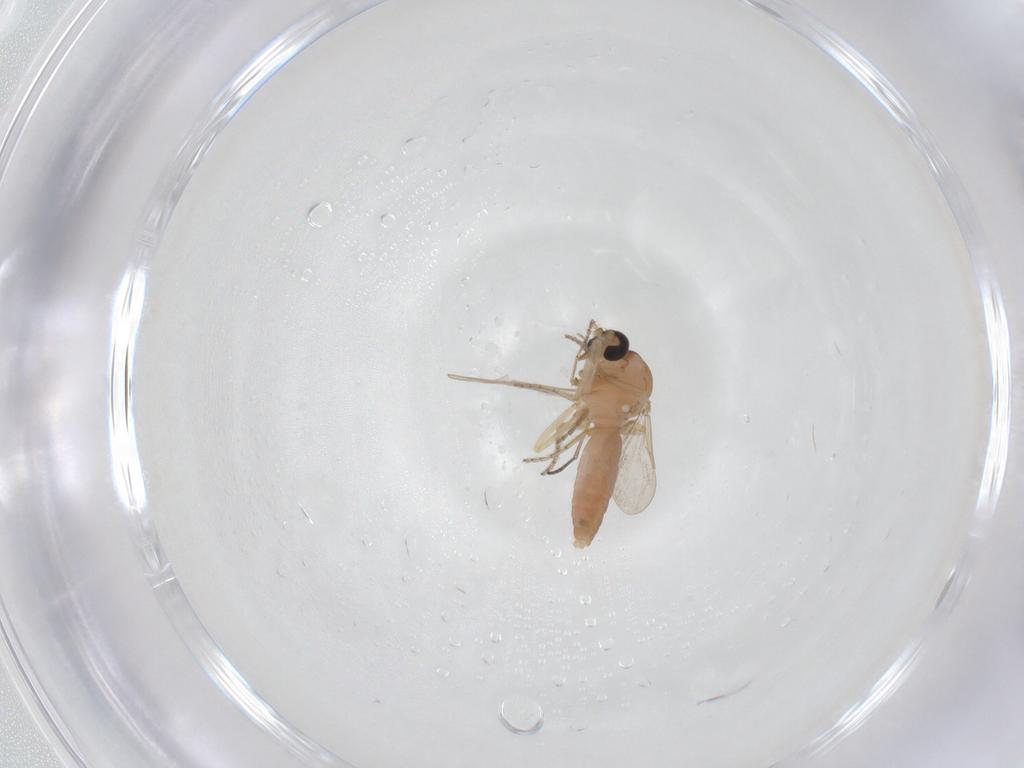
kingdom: Animalia
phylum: Arthropoda
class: Insecta
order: Diptera
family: Ceratopogonidae
